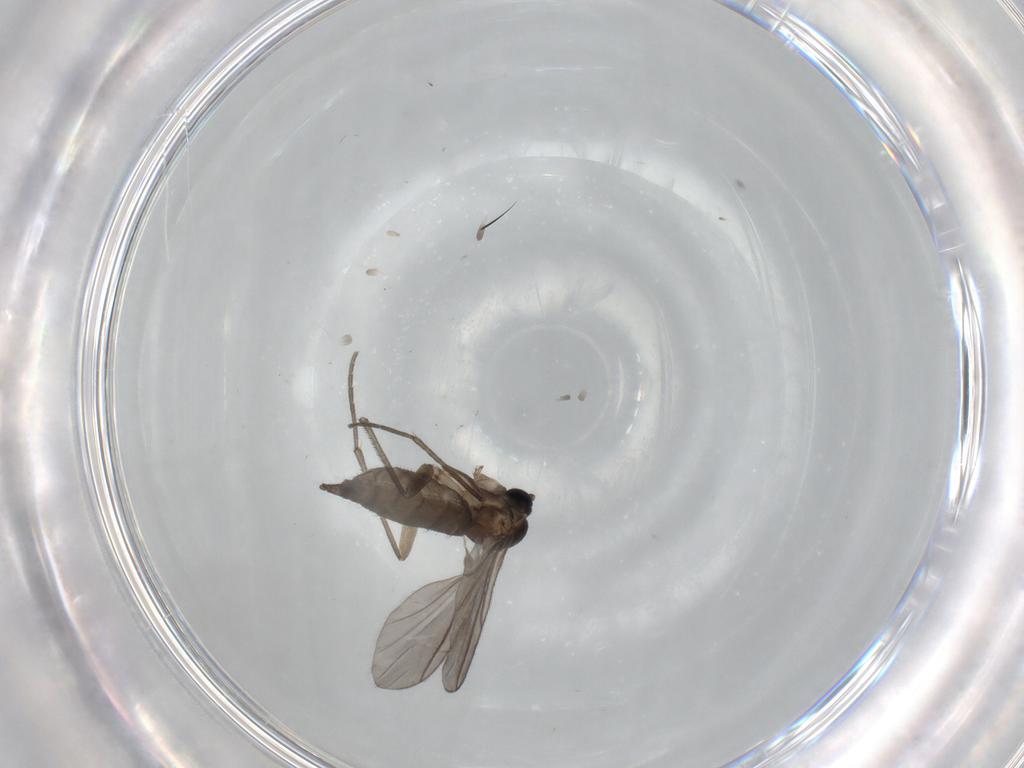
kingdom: Animalia
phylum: Arthropoda
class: Insecta
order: Diptera
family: Sciaridae
